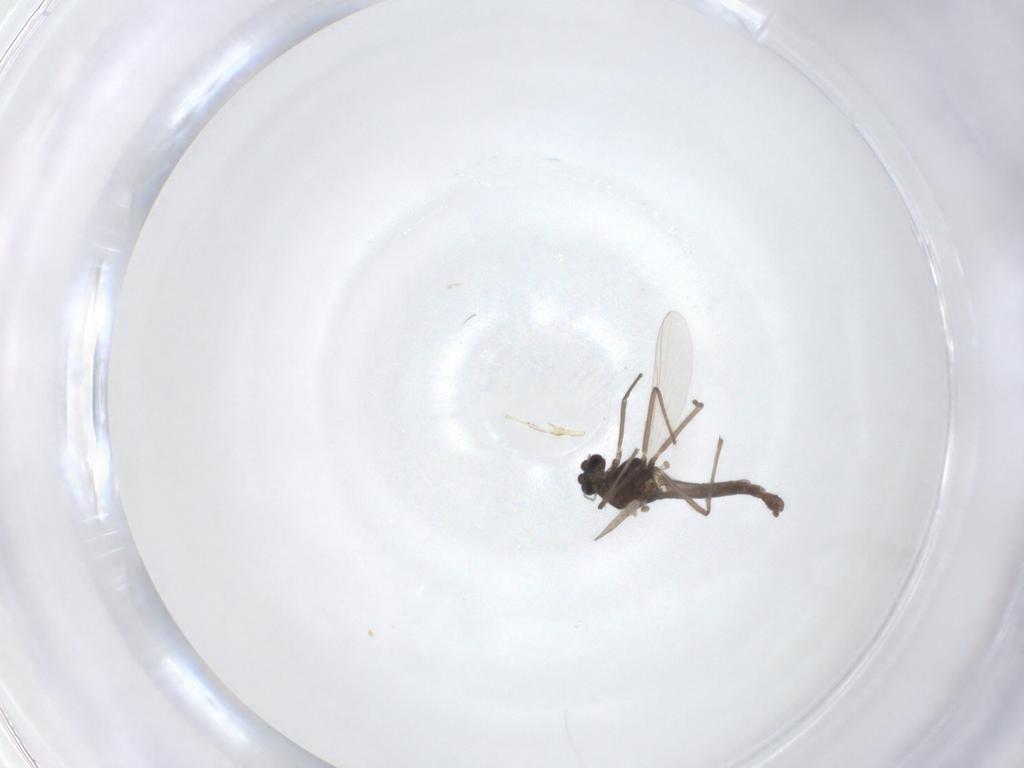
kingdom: Animalia
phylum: Arthropoda
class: Insecta
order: Diptera
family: Chironomidae
